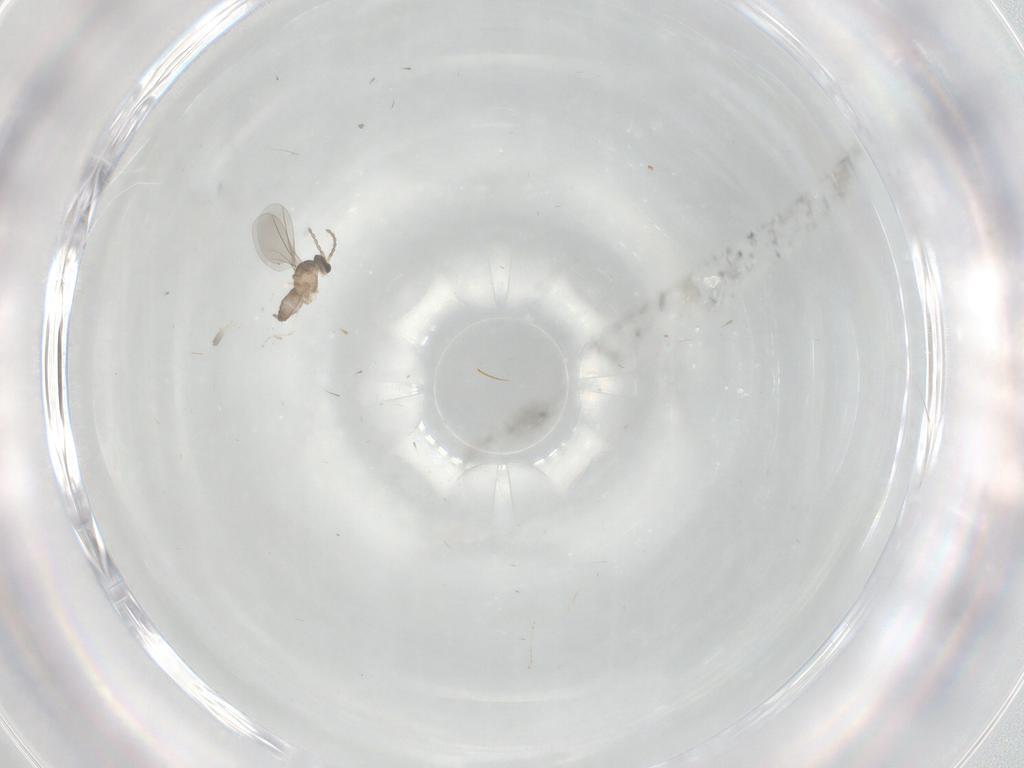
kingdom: Animalia
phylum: Arthropoda
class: Insecta
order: Diptera
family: Cecidomyiidae
